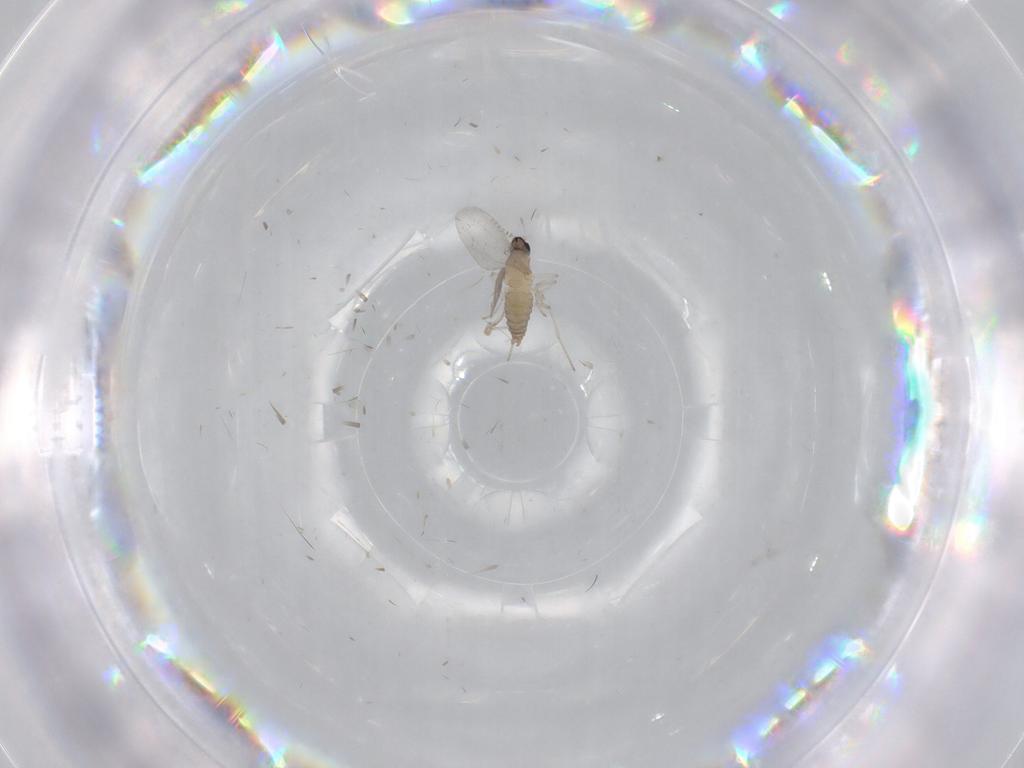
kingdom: Animalia
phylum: Arthropoda
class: Insecta
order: Diptera
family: Cecidomyiidae
